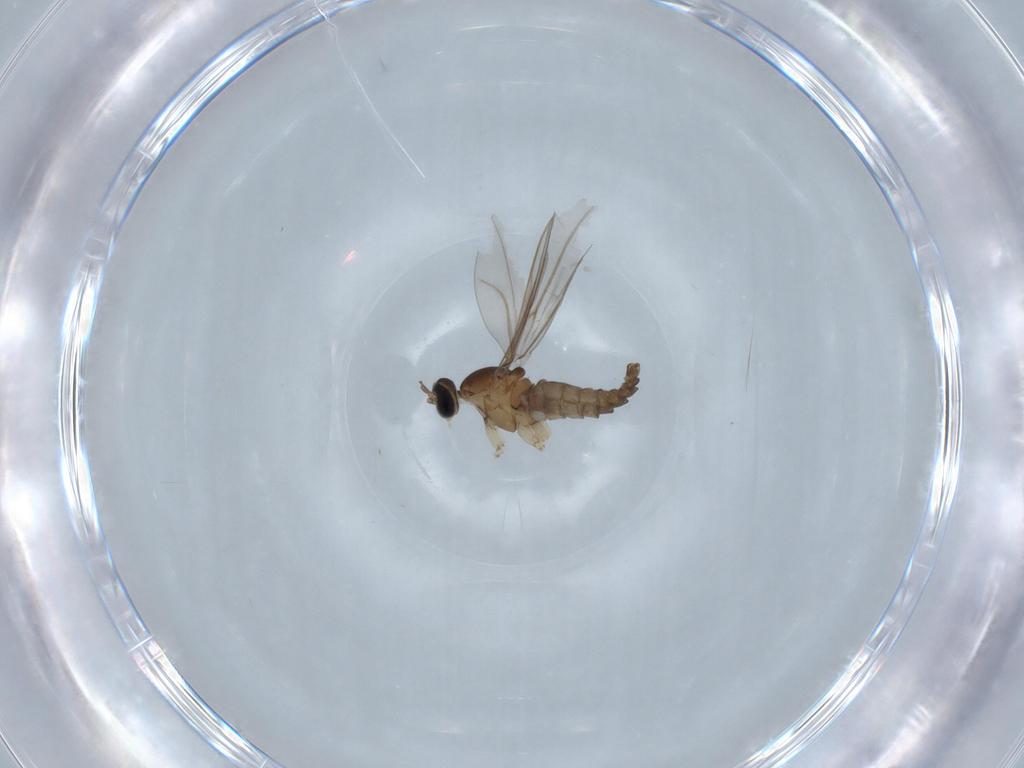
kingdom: Animalia
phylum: Arthropoda
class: Insecta
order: Diptera
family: Cecidomyiidae
